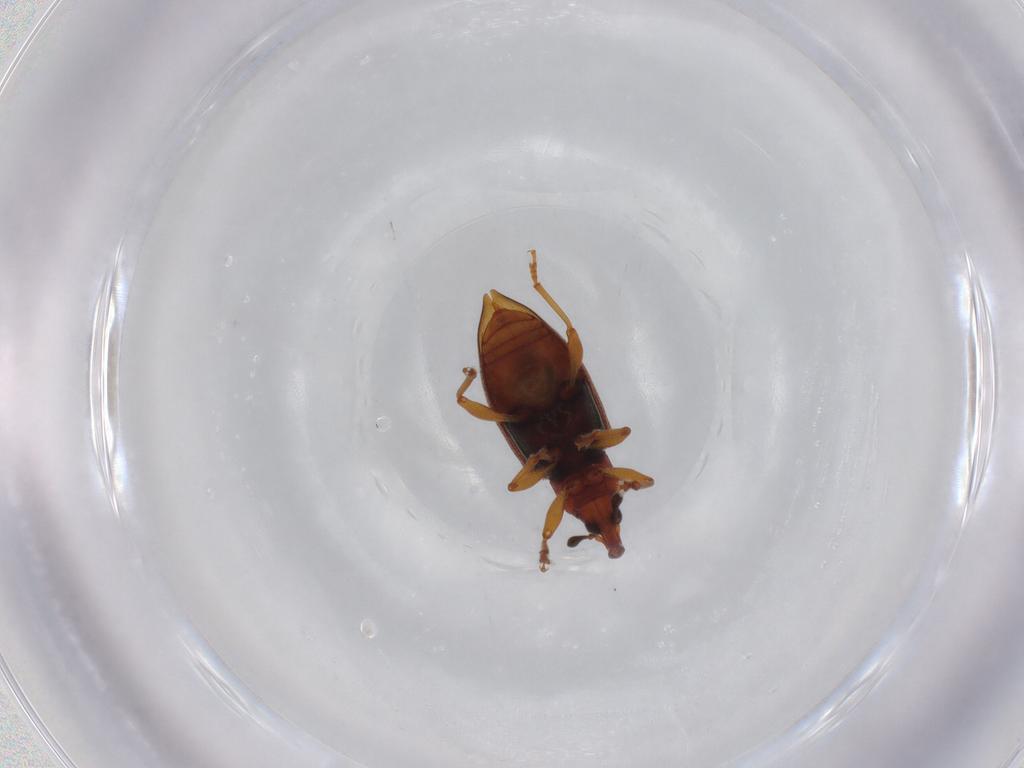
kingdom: Animalia
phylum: Arthropoda
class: Insecta
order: Coleoptera
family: Curculionidae
